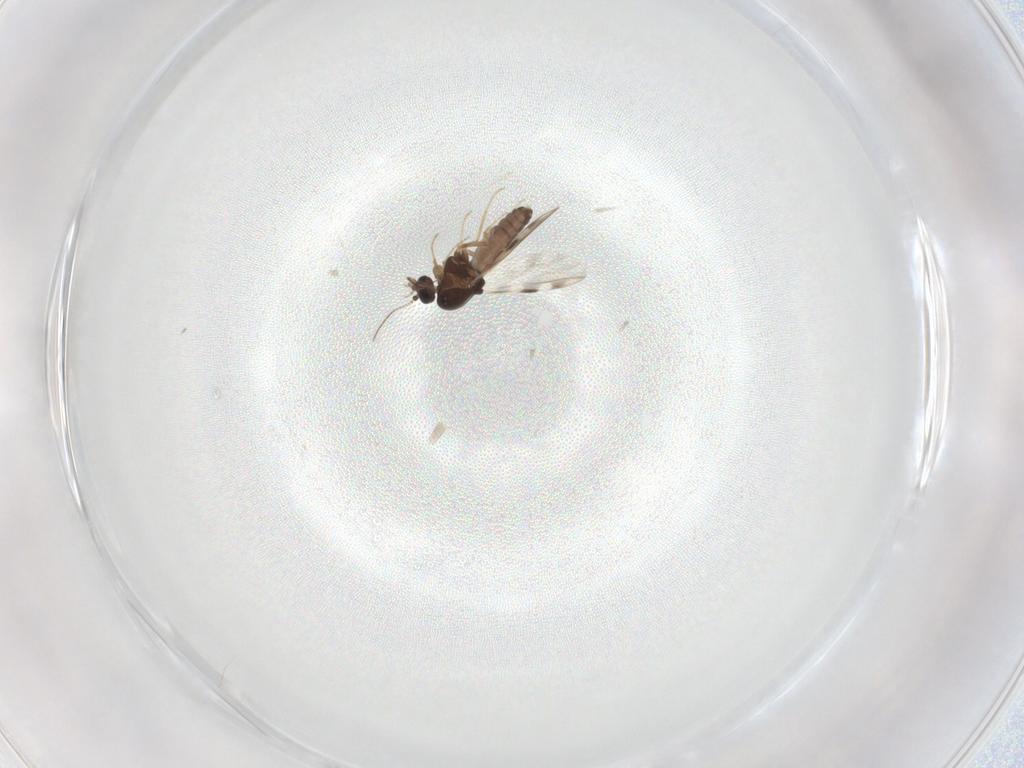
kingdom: Animalia
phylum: Arthropoda
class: Insecta
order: Diptera
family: Ceratopogonidae
